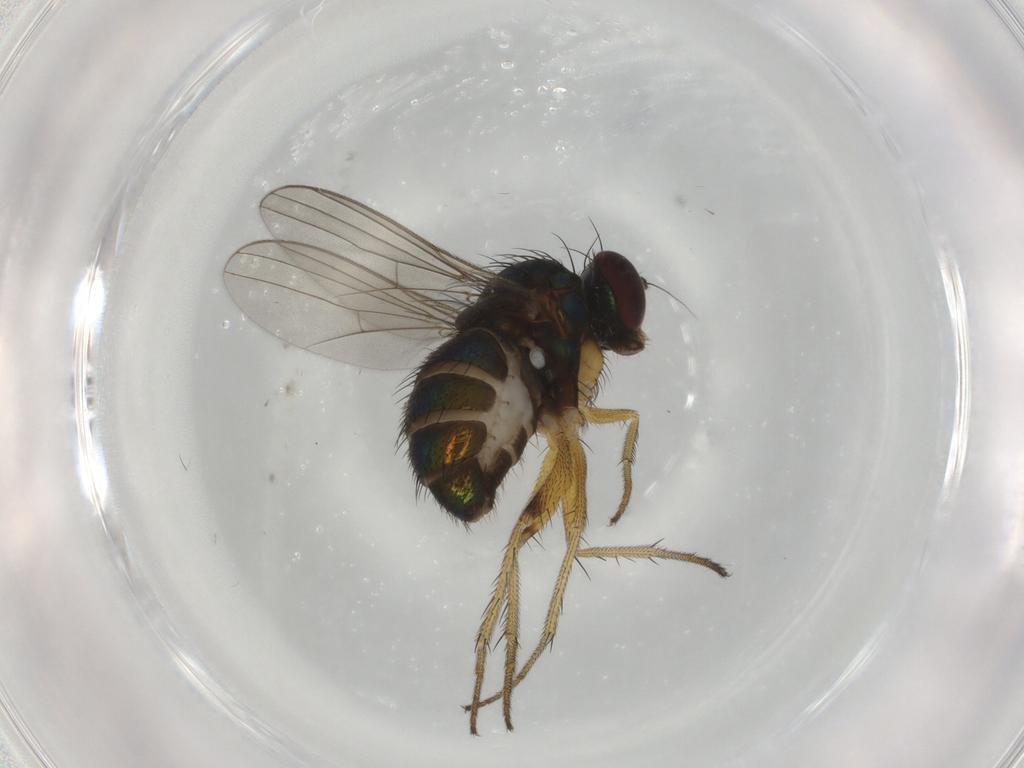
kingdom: Animalia
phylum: Arthropoda
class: Insecta
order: Diptera
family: Dolichopodidae
